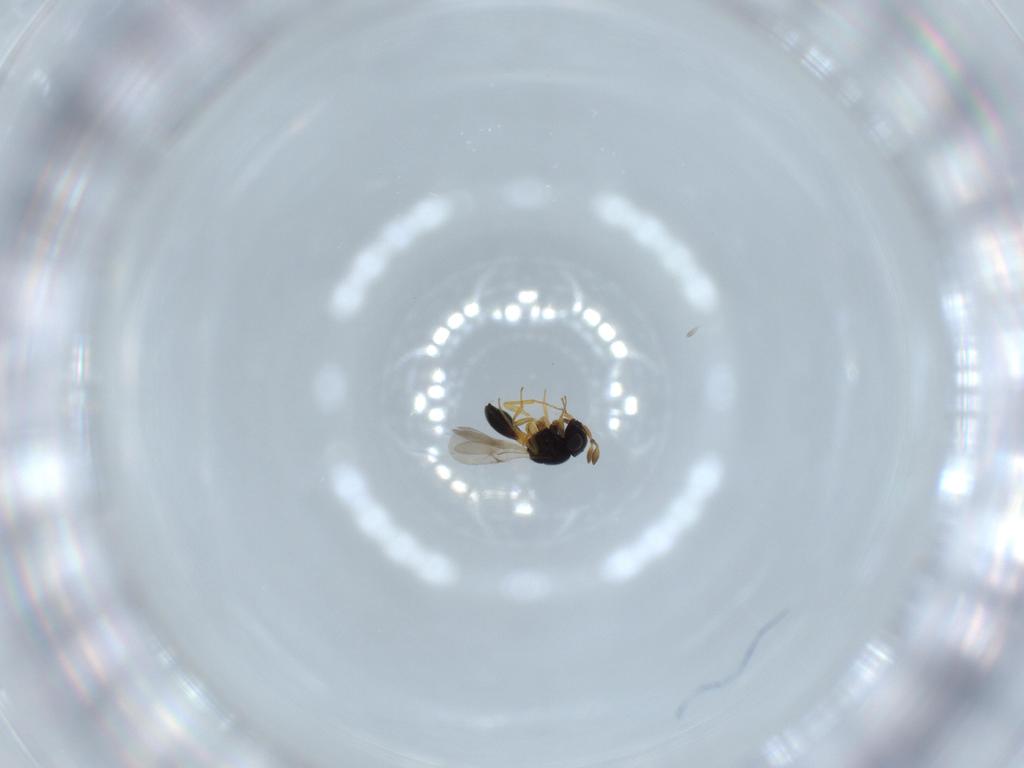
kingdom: Animalia
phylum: Arthropoda
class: Insecta
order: Hymenoptera
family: Scelionidae
